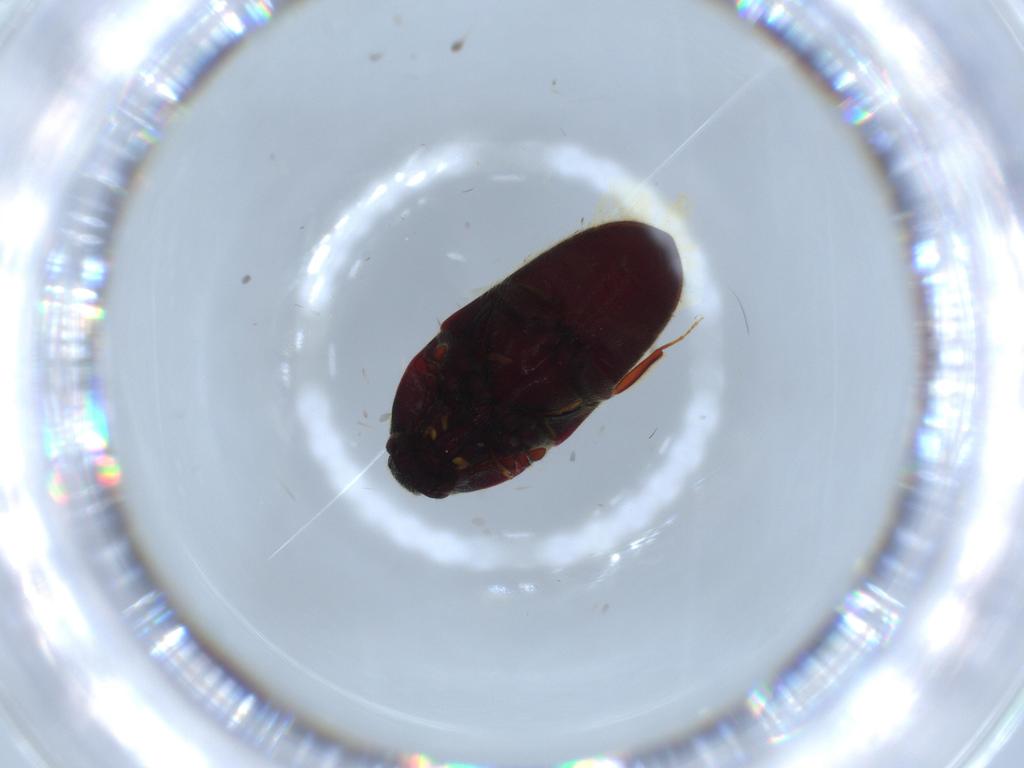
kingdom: Animalia
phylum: Arthropoda
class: Insecta
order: Coleoptera
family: Throscidae
